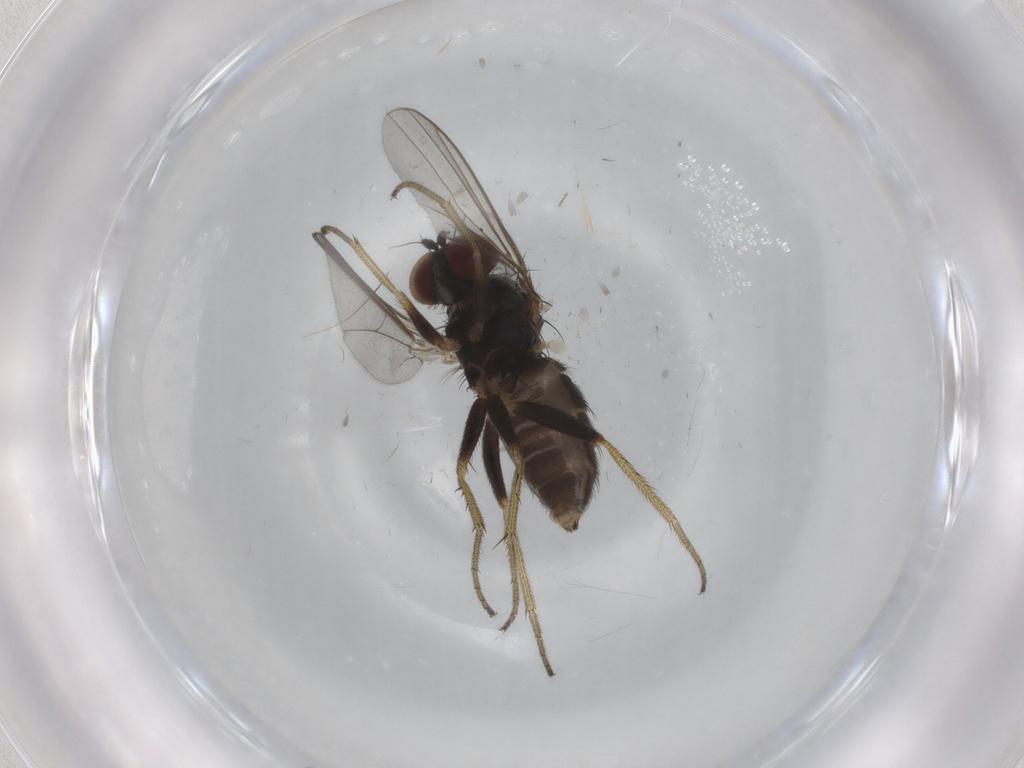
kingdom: Animalia
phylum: Arthropoda
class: Insecta
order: Diptera
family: Dolichopodidae
